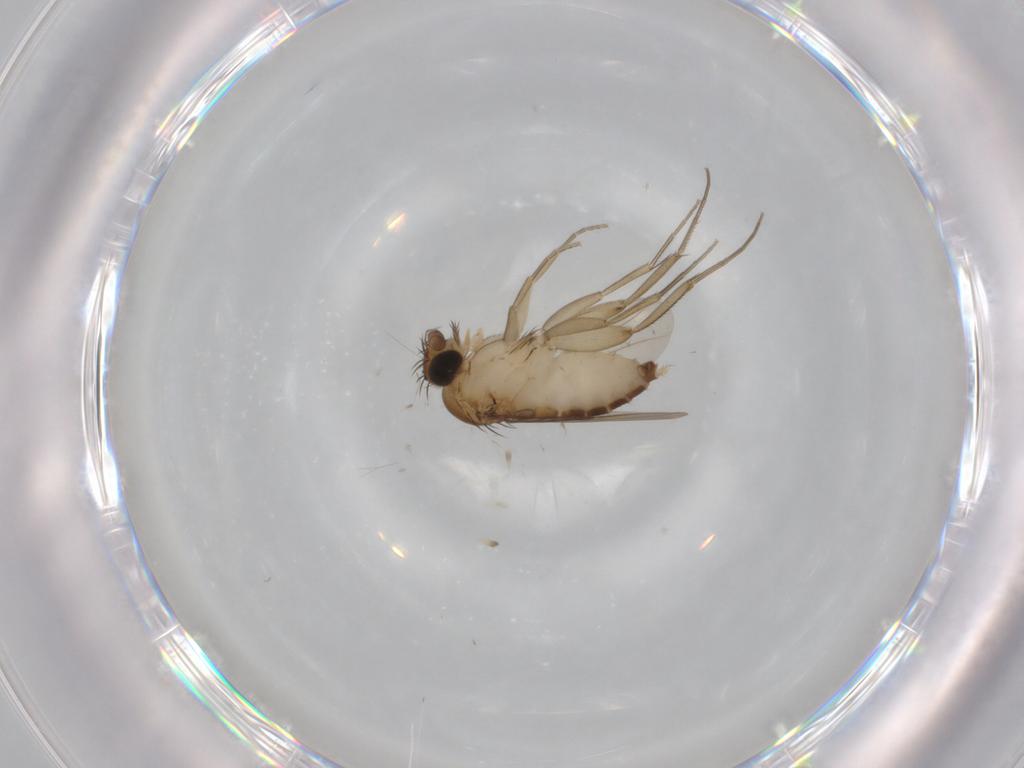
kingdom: Animalia
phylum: Arthropoda
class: Insecta
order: Diptera
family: Phoridae
